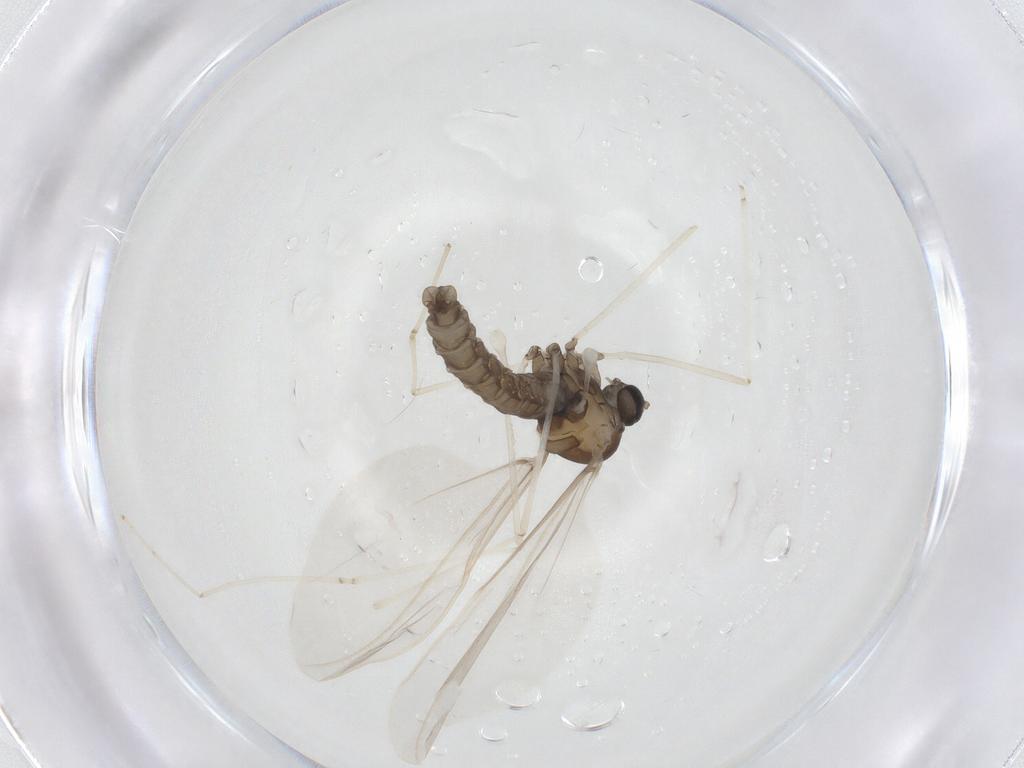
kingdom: Animalia
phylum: Arthropoda
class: Insecta
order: Diptera
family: Cecidomyiidae
